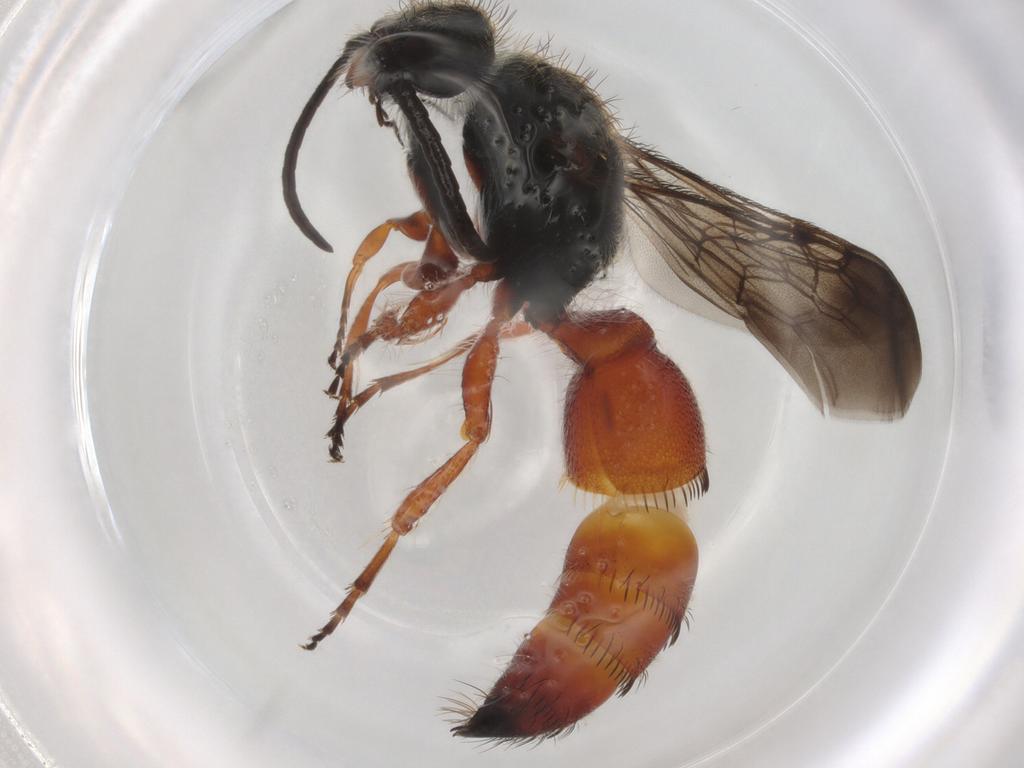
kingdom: Animalia
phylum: Arthropoda
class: Insecta
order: Hymenoptera
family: Mutillidae
